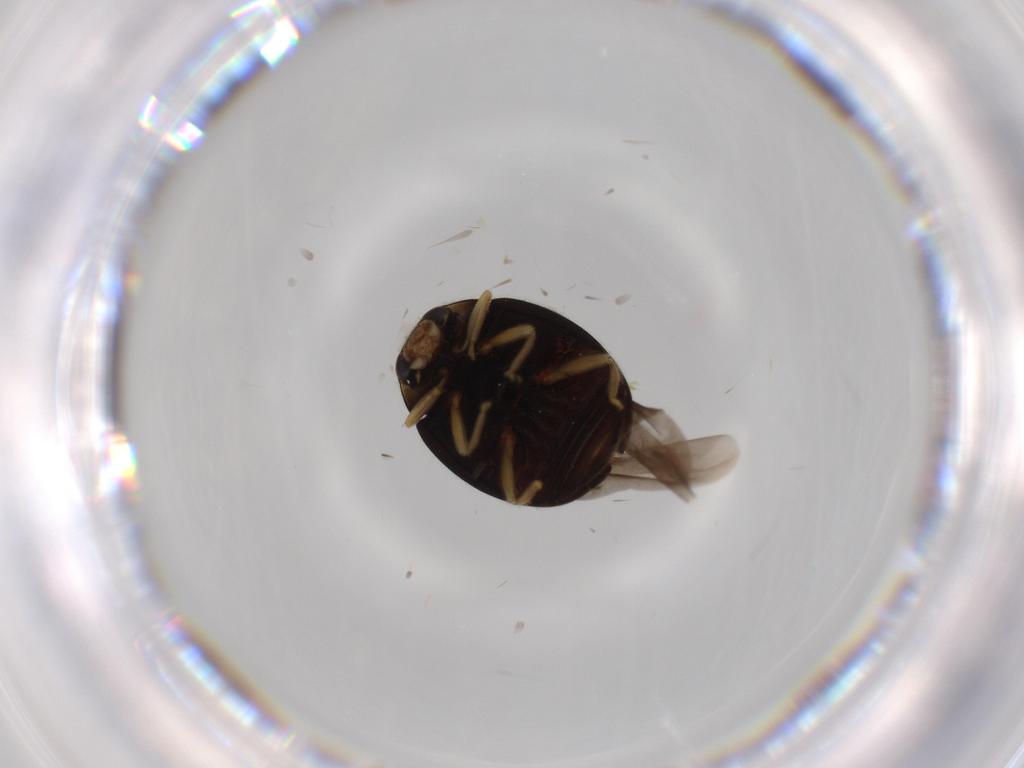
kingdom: Animalia
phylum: Arthropoda
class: Insecta
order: Coleoptera
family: Coccinellidae
